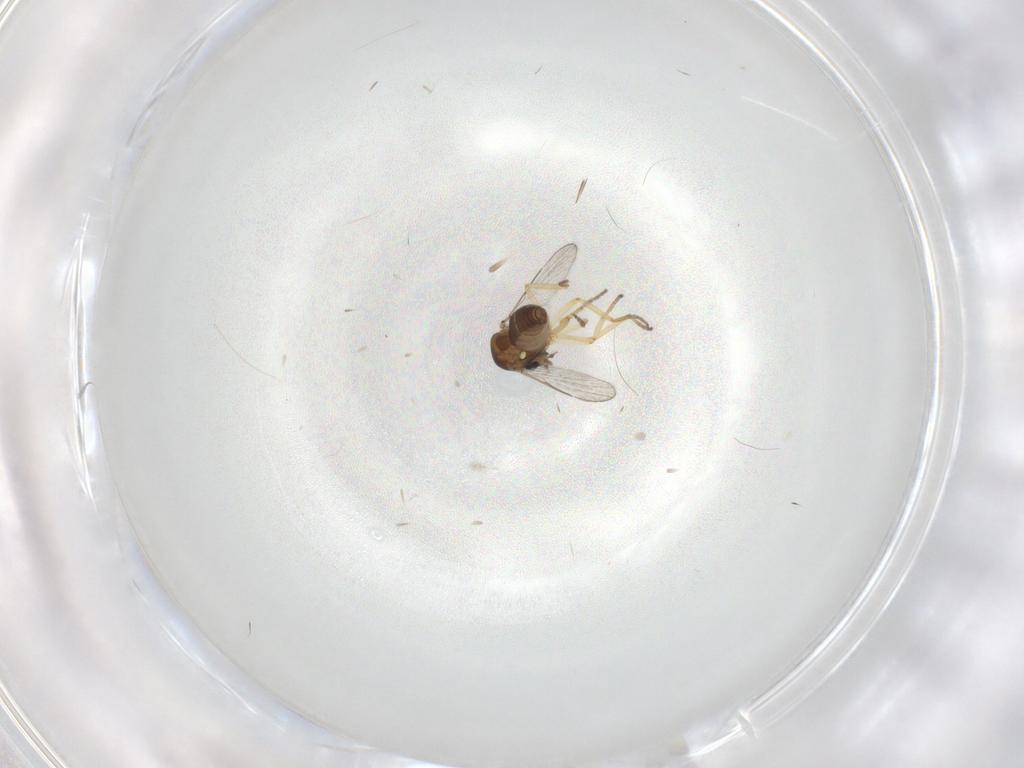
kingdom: Animalia
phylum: Arthropoda
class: Insecta
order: Diptera
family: Ceratopogonidae
